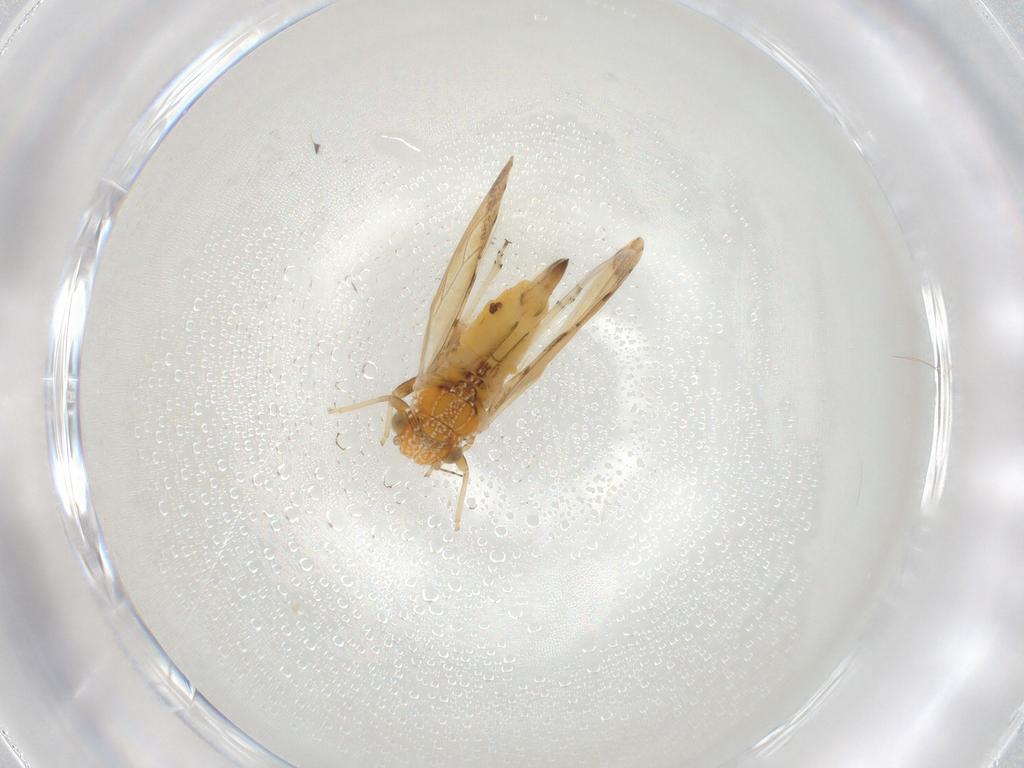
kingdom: Animalia
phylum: Arthropoda
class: Insecta
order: Hemiptera
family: Psyllidae
